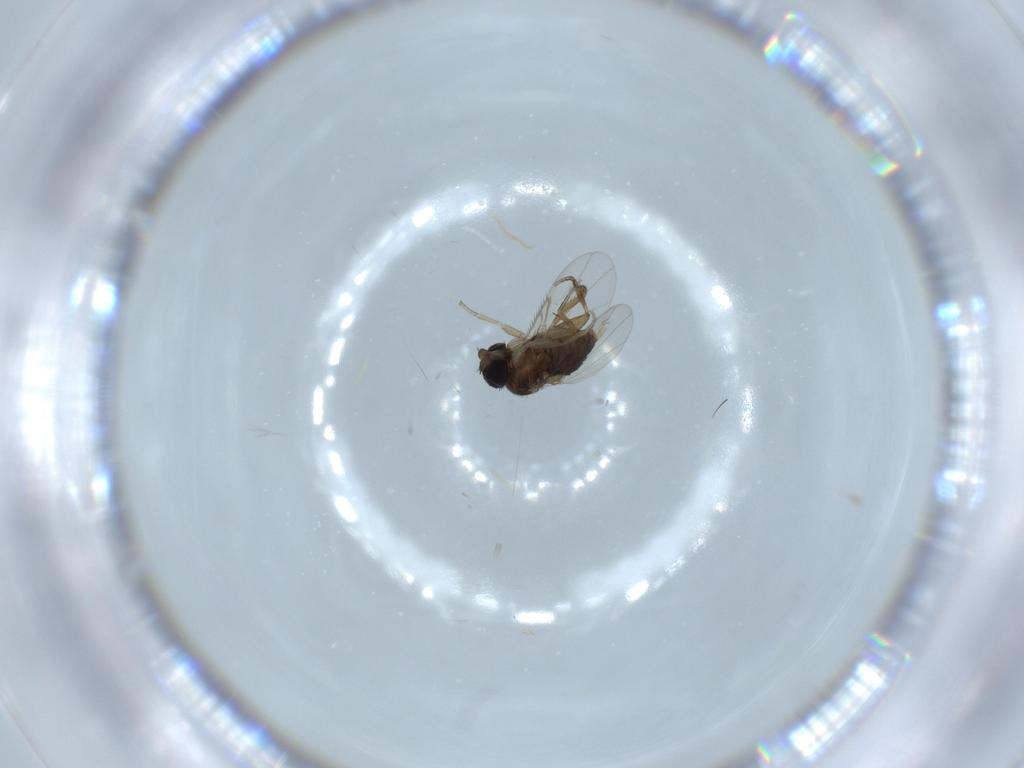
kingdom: Animalia
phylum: Arthropoda
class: Insecta
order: Diptera
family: Phoridae
